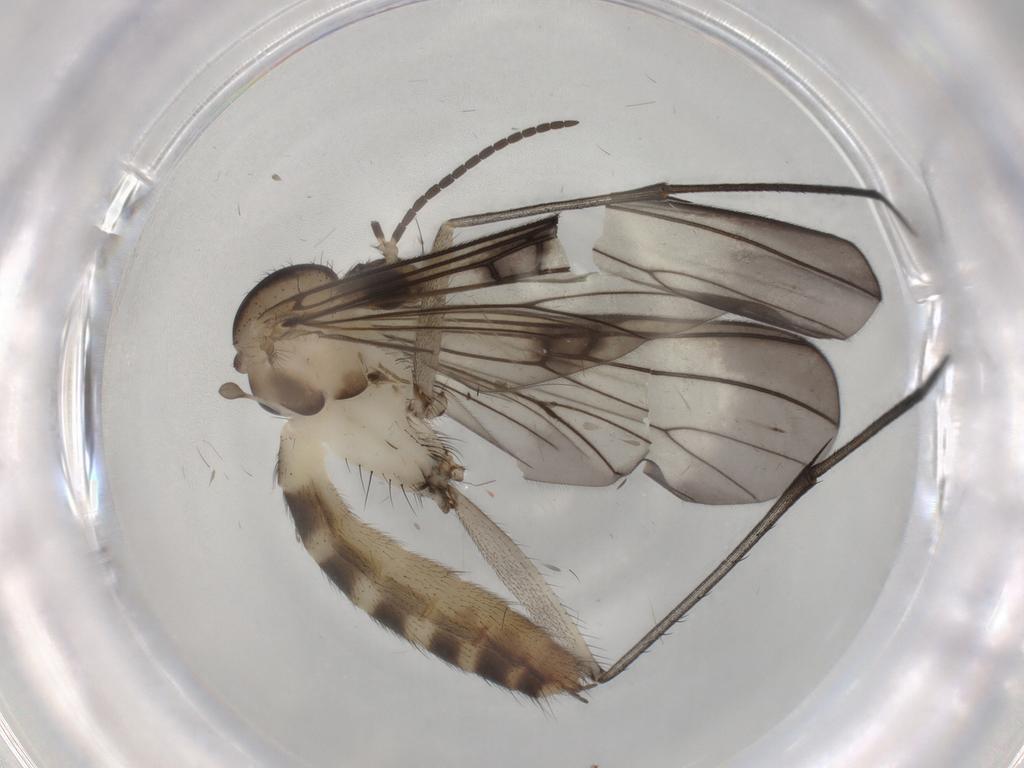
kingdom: Animalia
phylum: Arthropoda
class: Insecta
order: Diptera
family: Mycetophilidae
